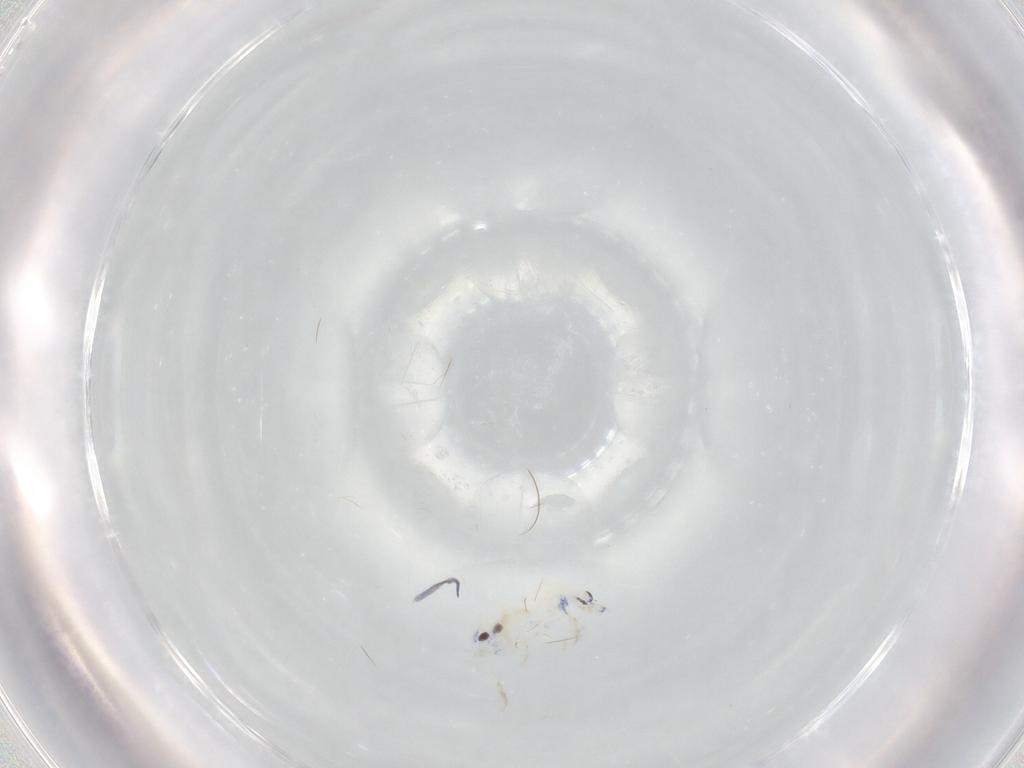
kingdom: Animalia
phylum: Arthropoda
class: Collembola
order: Entomobryomorpha
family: Entomobryidae
